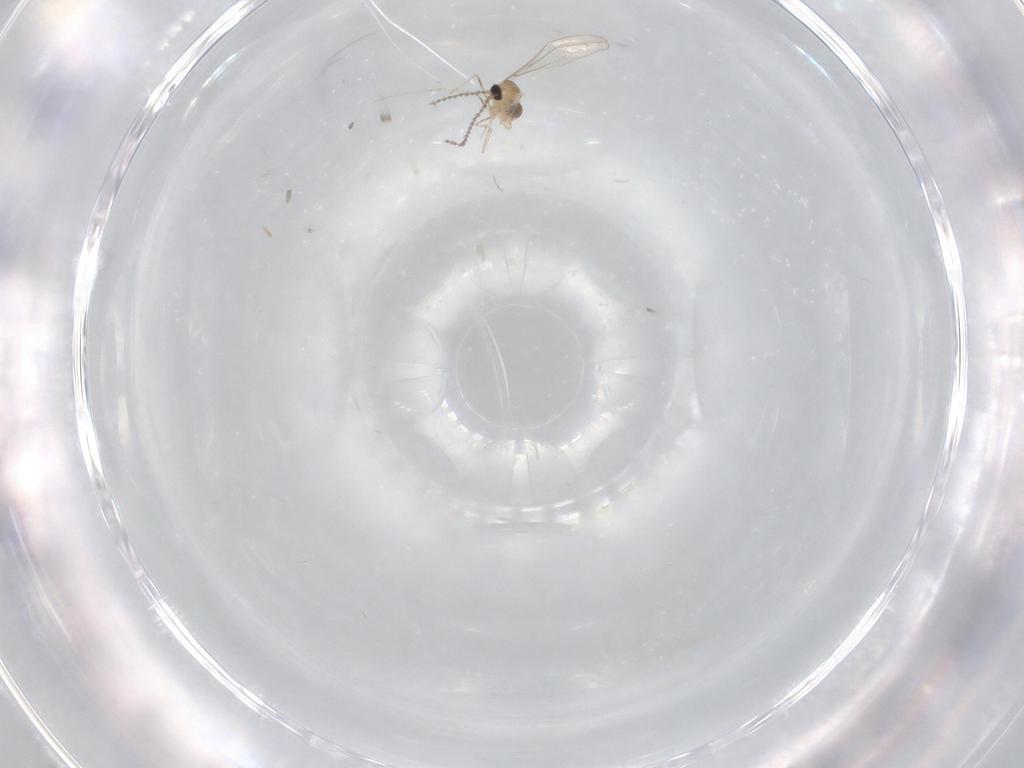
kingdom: Animalia
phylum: Arthropoda
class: Insecta
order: Diptera
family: Cecidomyiidae
